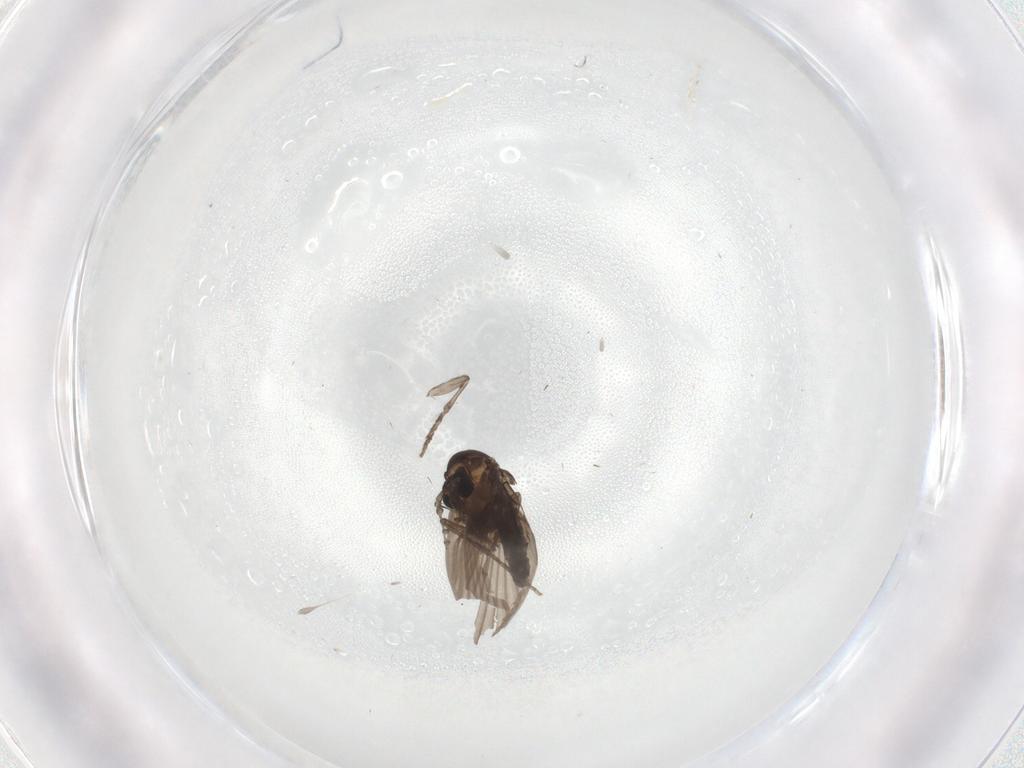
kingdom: Animalia
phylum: Arthropoda
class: Insecta
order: Diptera
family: Psychodidae
